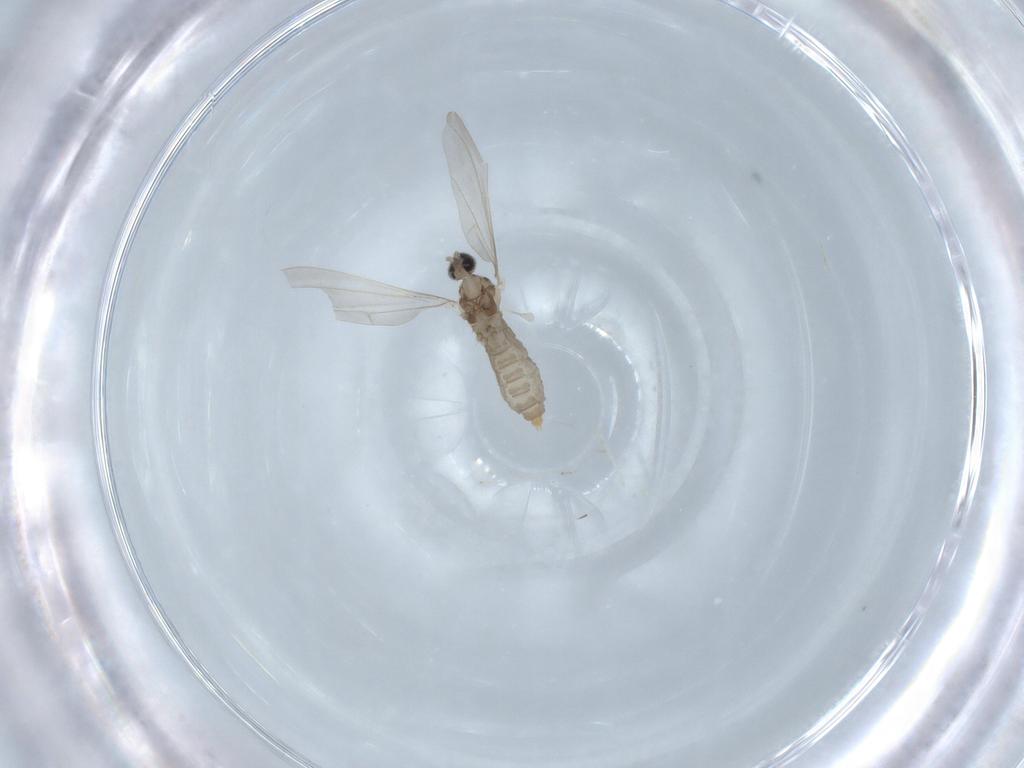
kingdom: Animalia
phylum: Arthropoda
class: Insecta
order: Diptera
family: Cecidomyiidae
